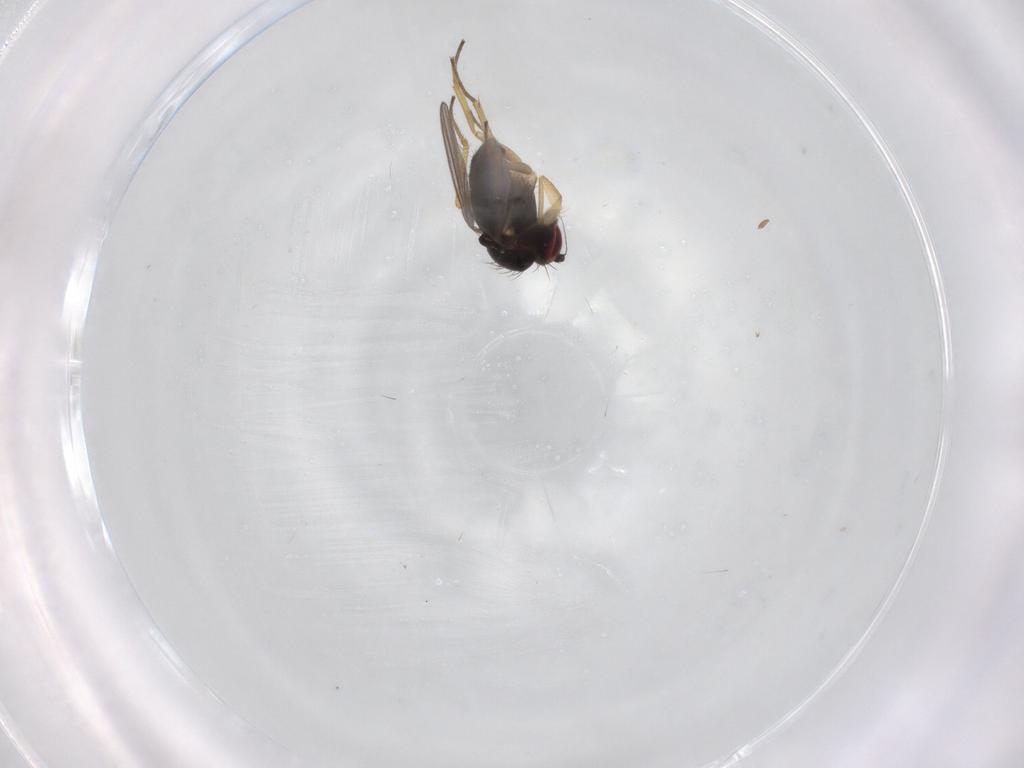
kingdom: Animalia
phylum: Arthropoda
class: Insecta
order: Diptera
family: Dolichopodidae
